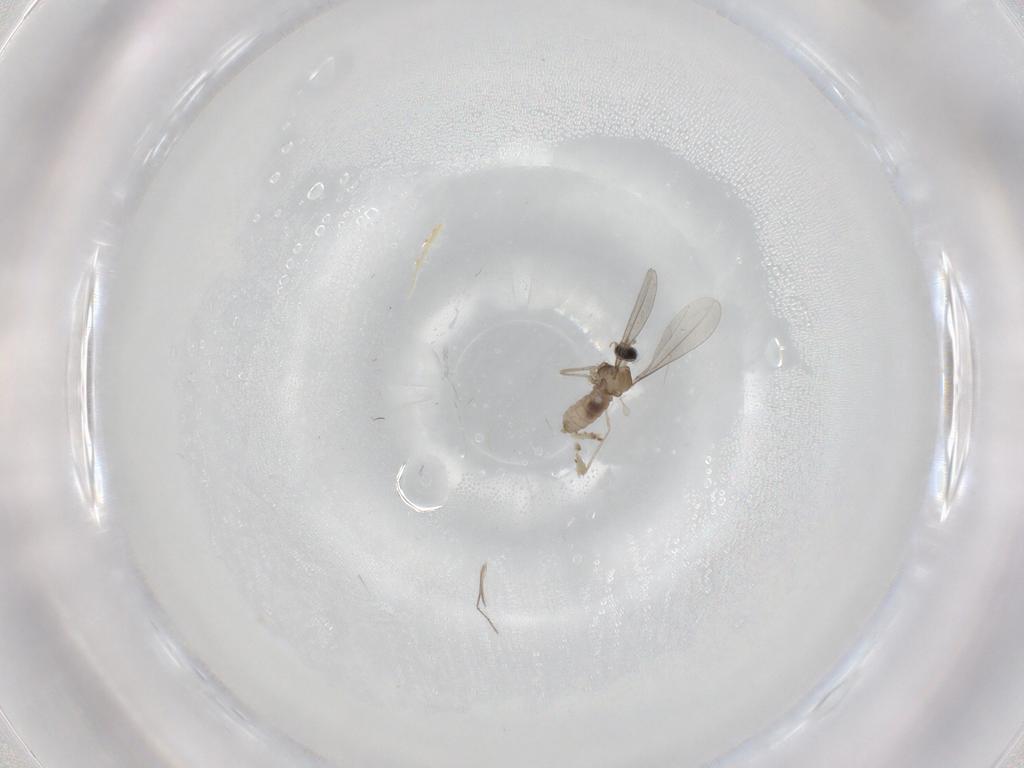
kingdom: Animalia
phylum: Arthropoda
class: Insecta
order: Diptera
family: Ceratopogonidae
